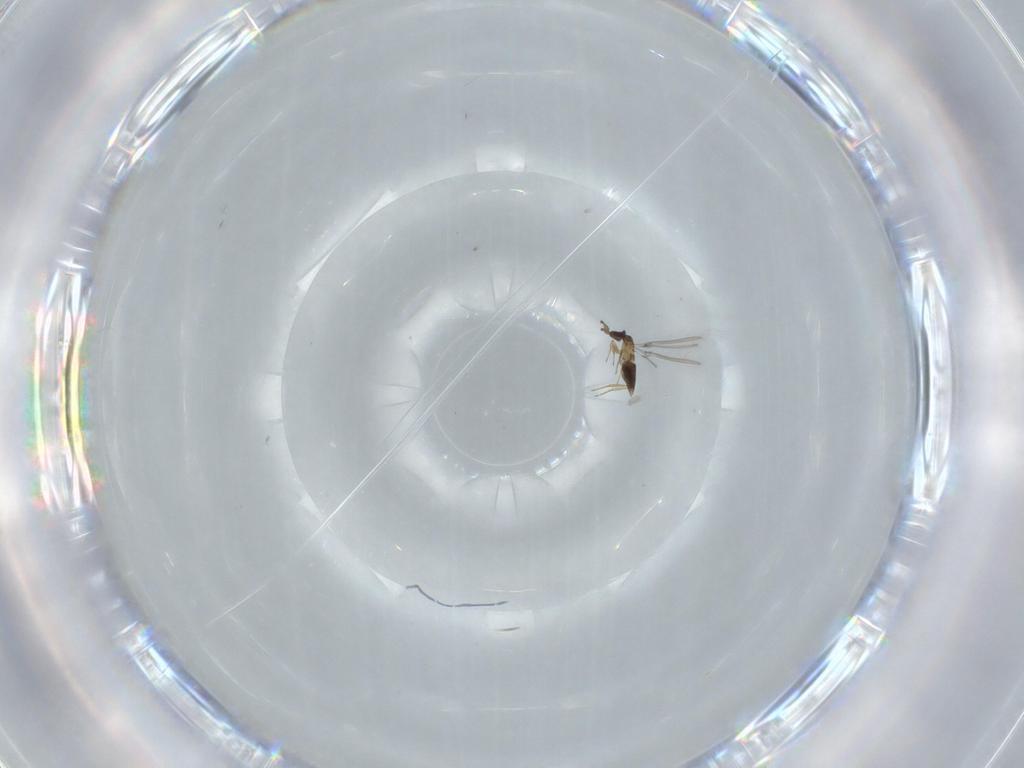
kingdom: Animalia
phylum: Arthropoda
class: Insecta
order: Hymenoptera
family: Mymaridae
